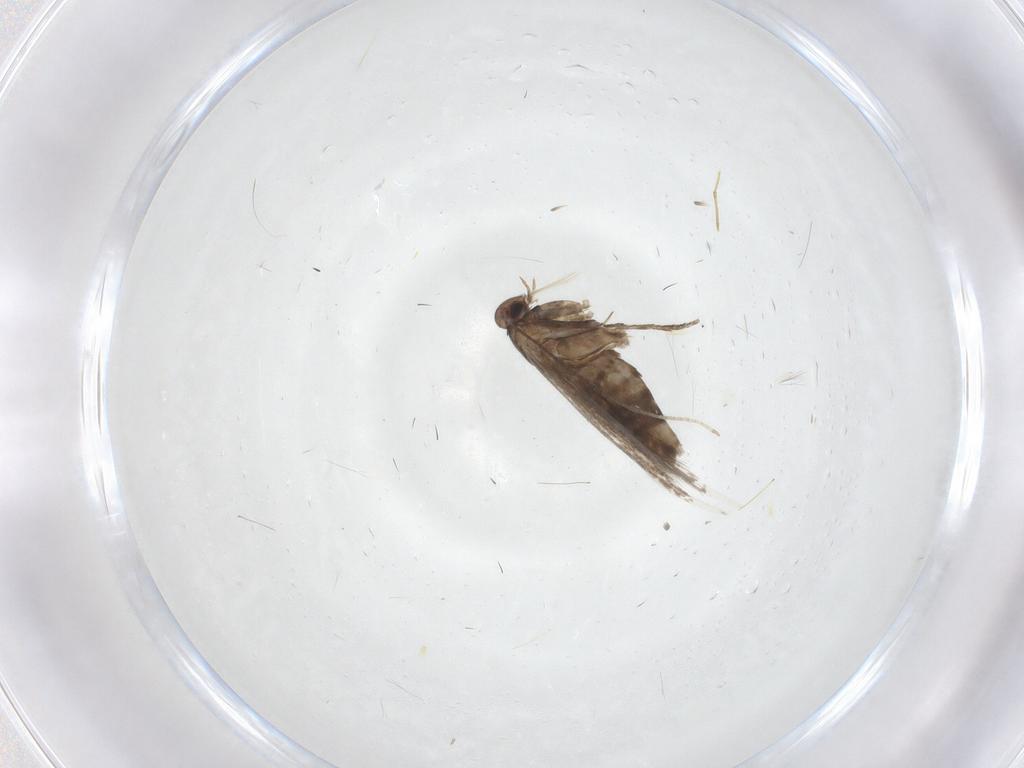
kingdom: Animalia
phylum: Arthropoda
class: Insecta
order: Lepidoptera
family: Gracillariidae
